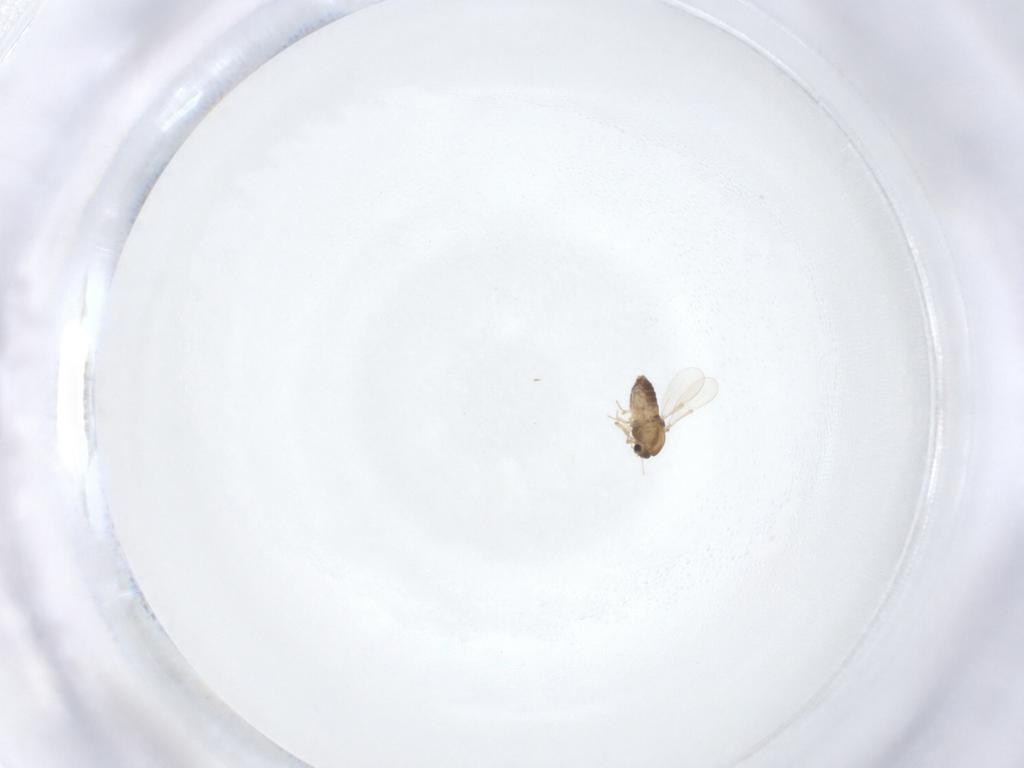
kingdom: Animalia
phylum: Arthropoda
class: Insecta
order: Diptera
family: Chironomidae
